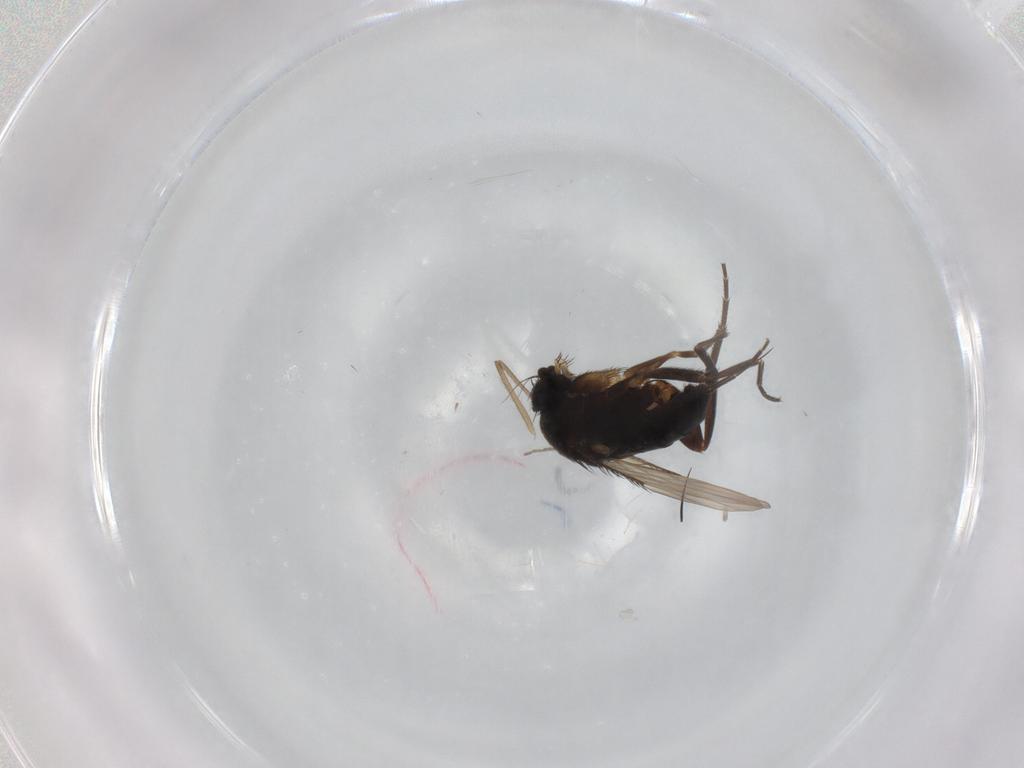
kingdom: Animalia
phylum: Arthropoda
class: Insecta
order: Diptera
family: Phoridae
